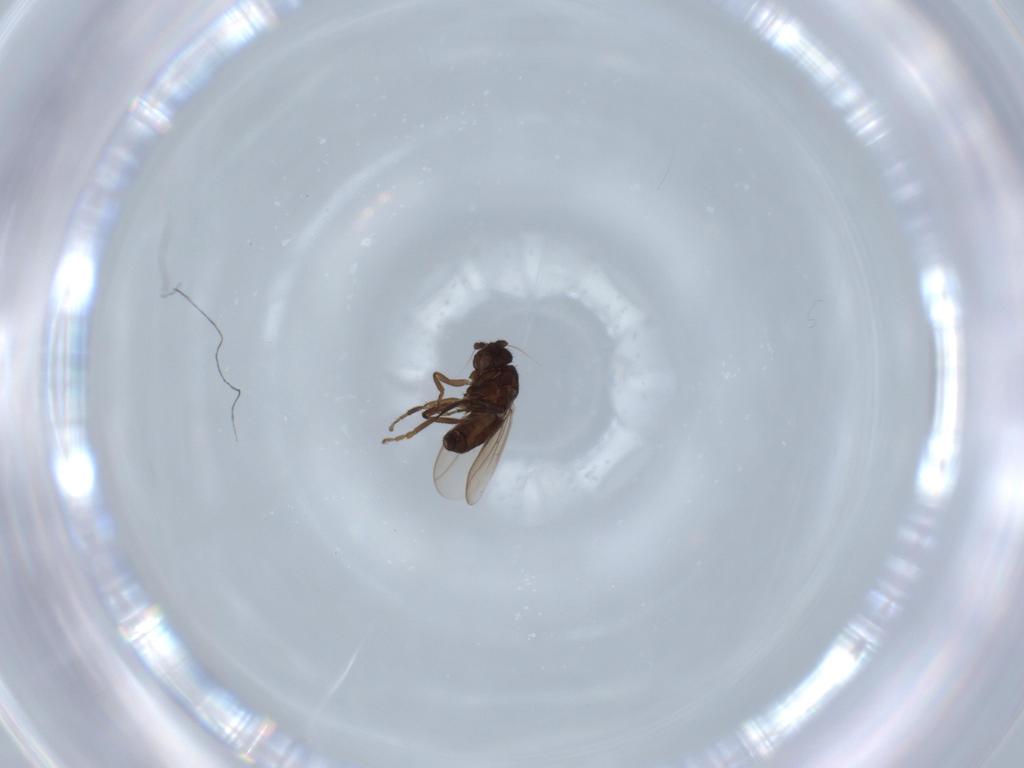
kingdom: Animalia
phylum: Arthropoda
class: Insecta
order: Diptera
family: Sphaeroceridae
